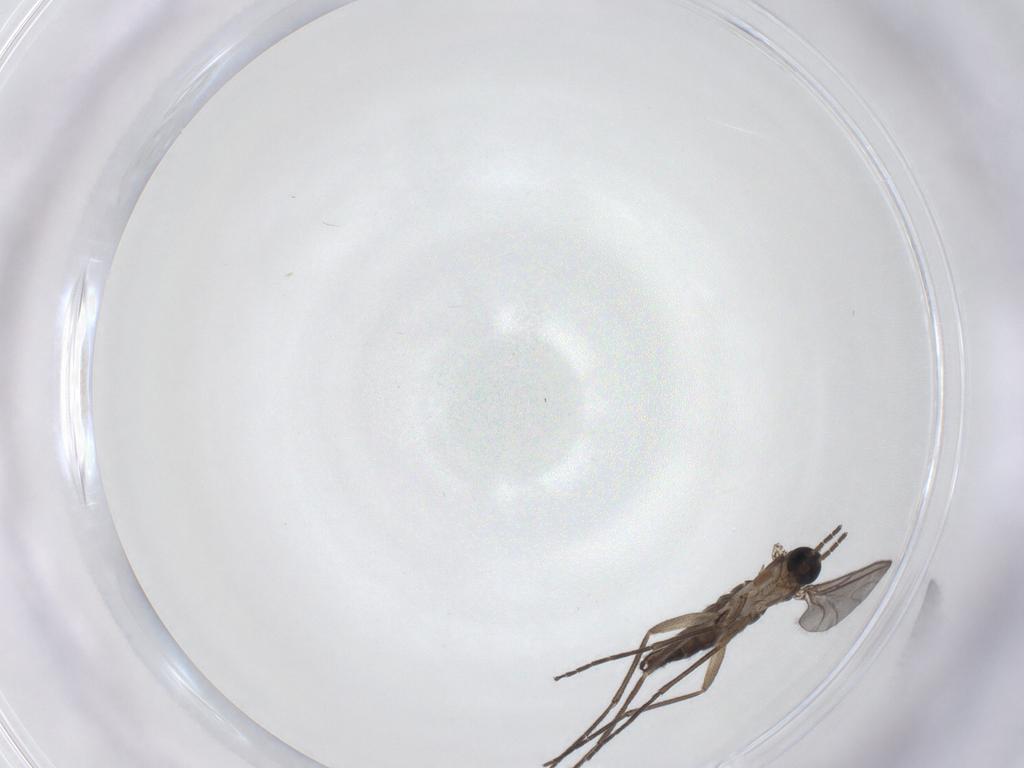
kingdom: Animalia
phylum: Arthropoda
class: Insecta
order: Diptera
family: Sciaridae
